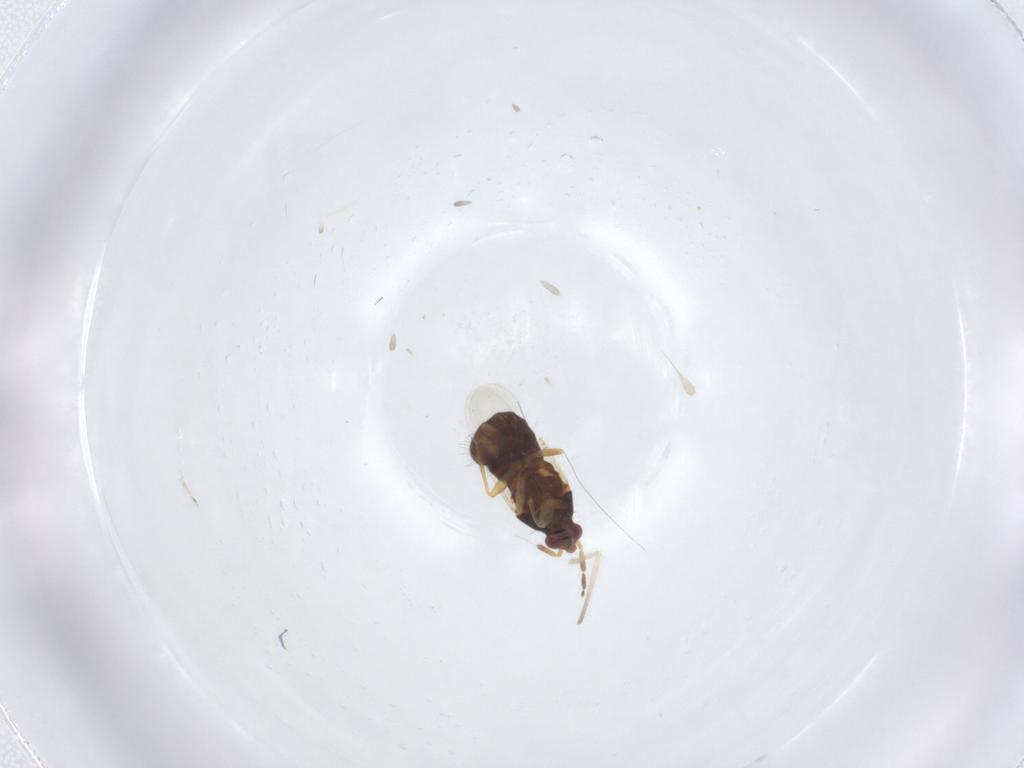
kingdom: Animalia
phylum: Arthropoda
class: Insecta
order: Hemiptera
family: Anthocoridae
